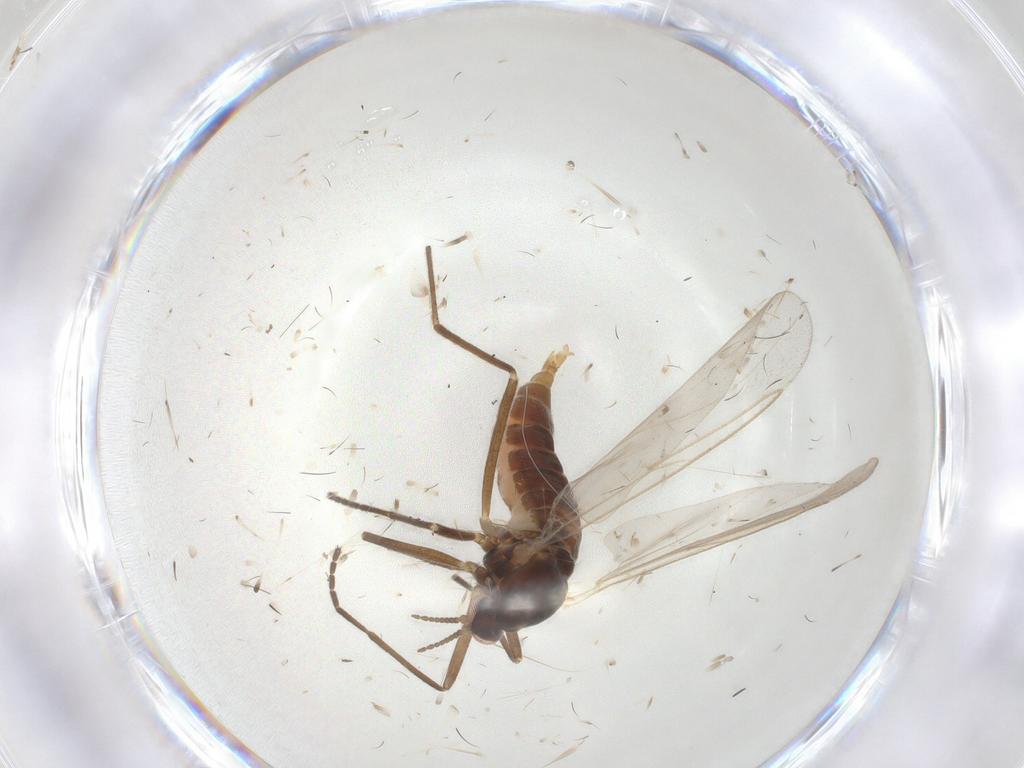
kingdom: Animalia
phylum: Arthropoda
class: Insecta
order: Diptera
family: Cecidomyiidae
